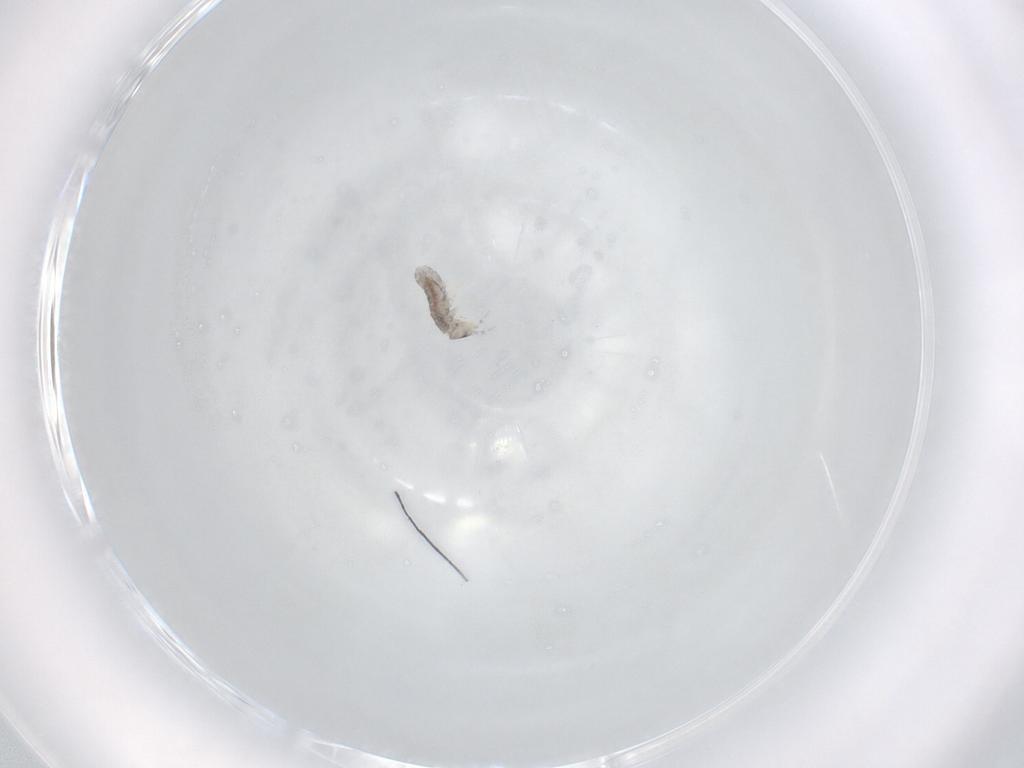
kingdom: Animalia
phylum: Arthropoda
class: Collembola
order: Entomobryomorpha
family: Isotomidae
